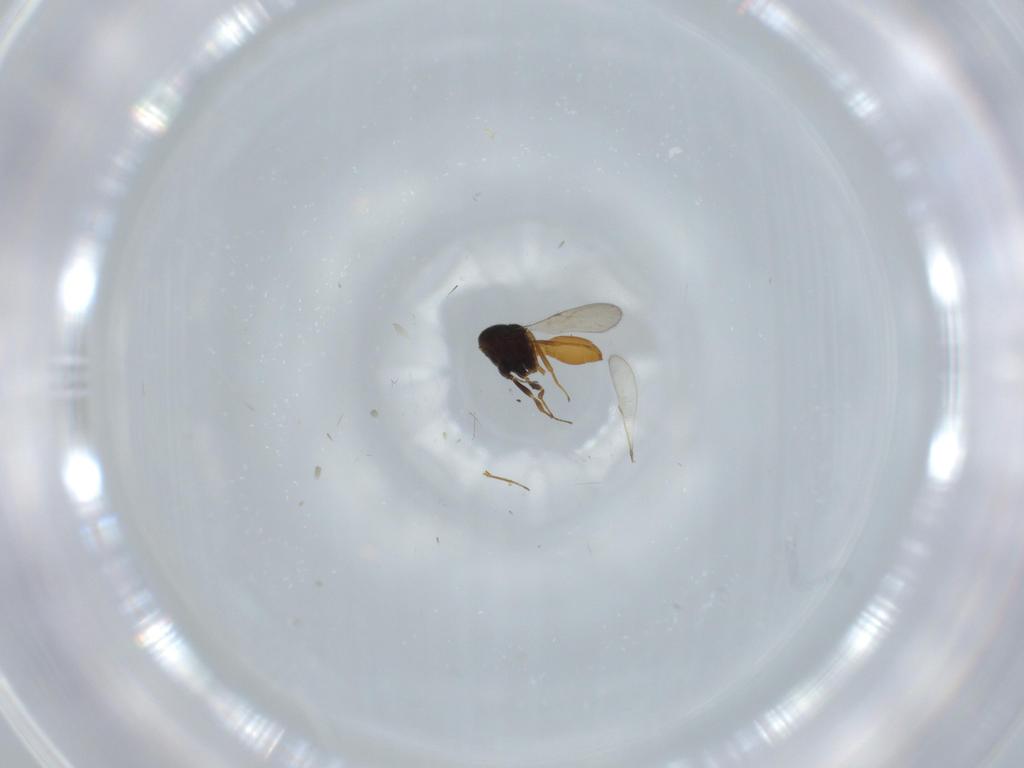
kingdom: Animalia
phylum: Arthropoda
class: Insecta
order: Hymenoptera
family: Scelionidae
